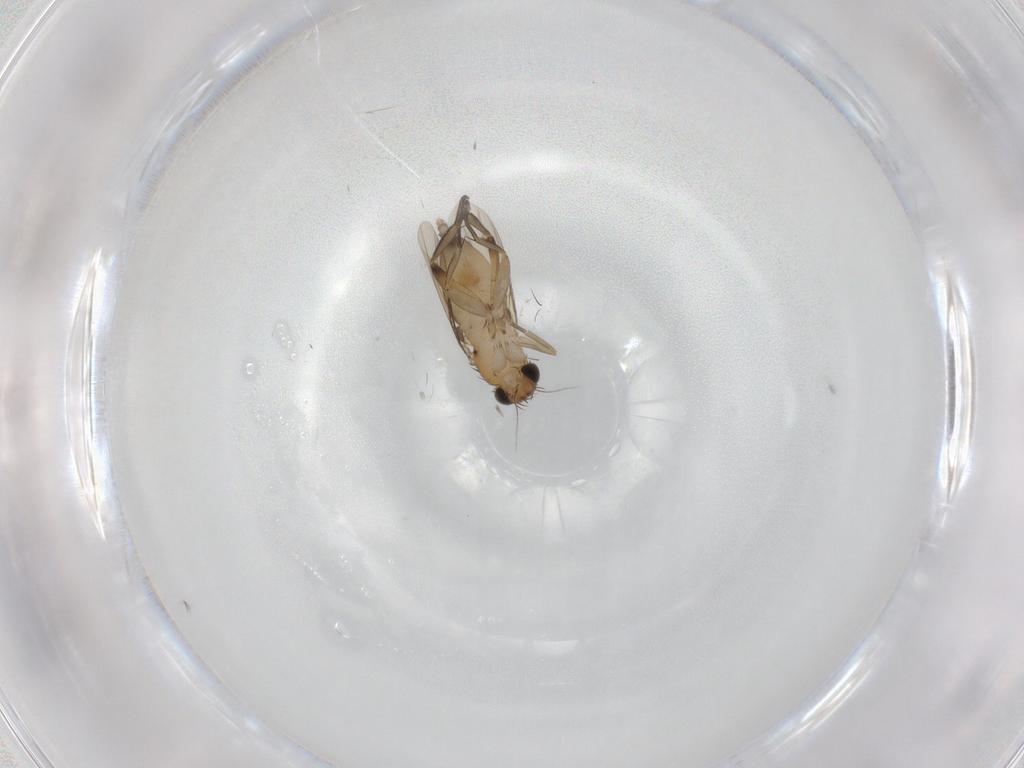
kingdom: Animalia
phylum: Arthropoda
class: Insecta
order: Diptera
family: Phoridae
